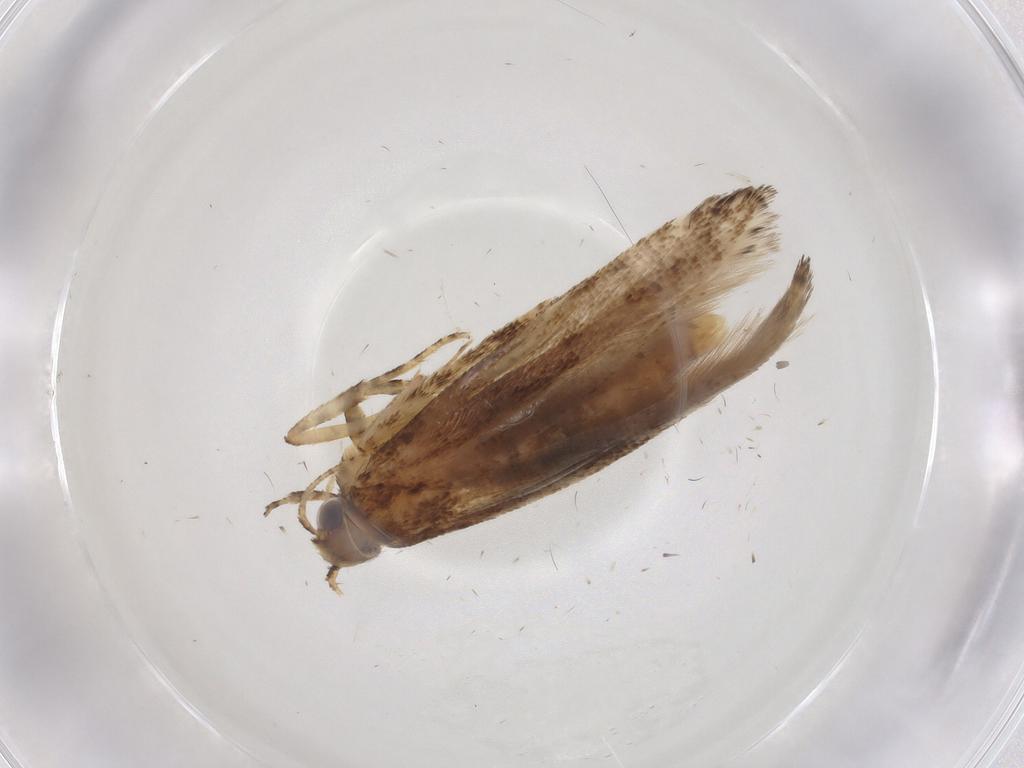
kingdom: Animalia
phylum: Arthropoda
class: Insecta
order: Lepidoptera
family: Gelechiidae
